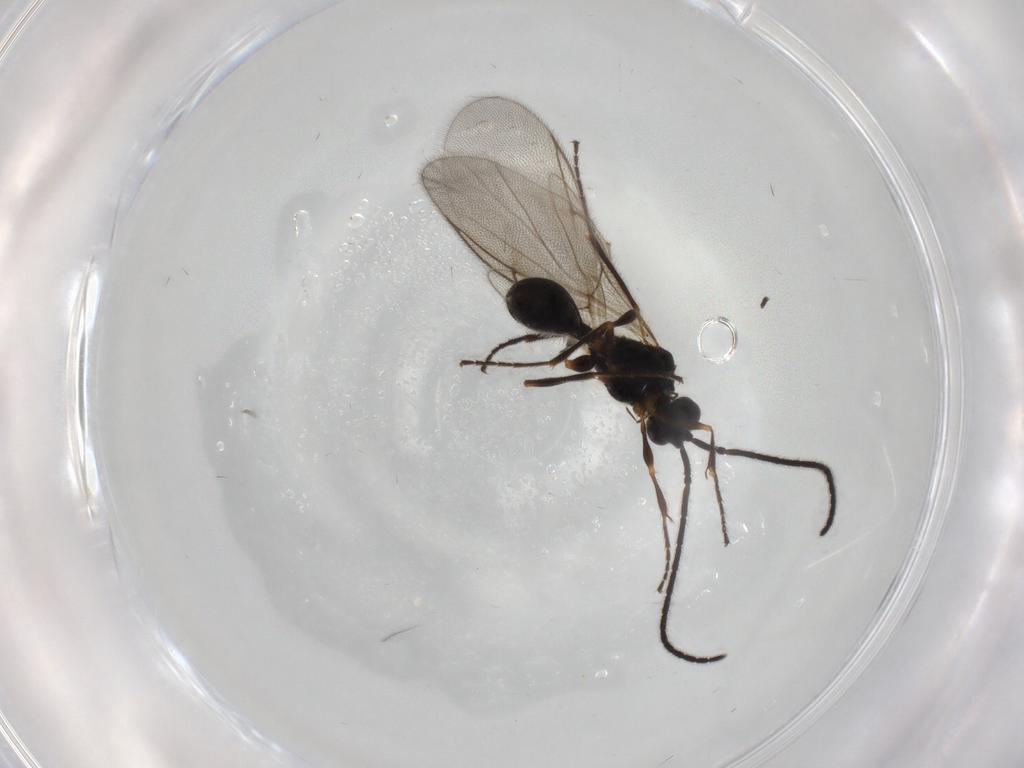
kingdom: Animalia
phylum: Arthropoda
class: Insecta
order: Hymenoptera
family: Diapriidae
